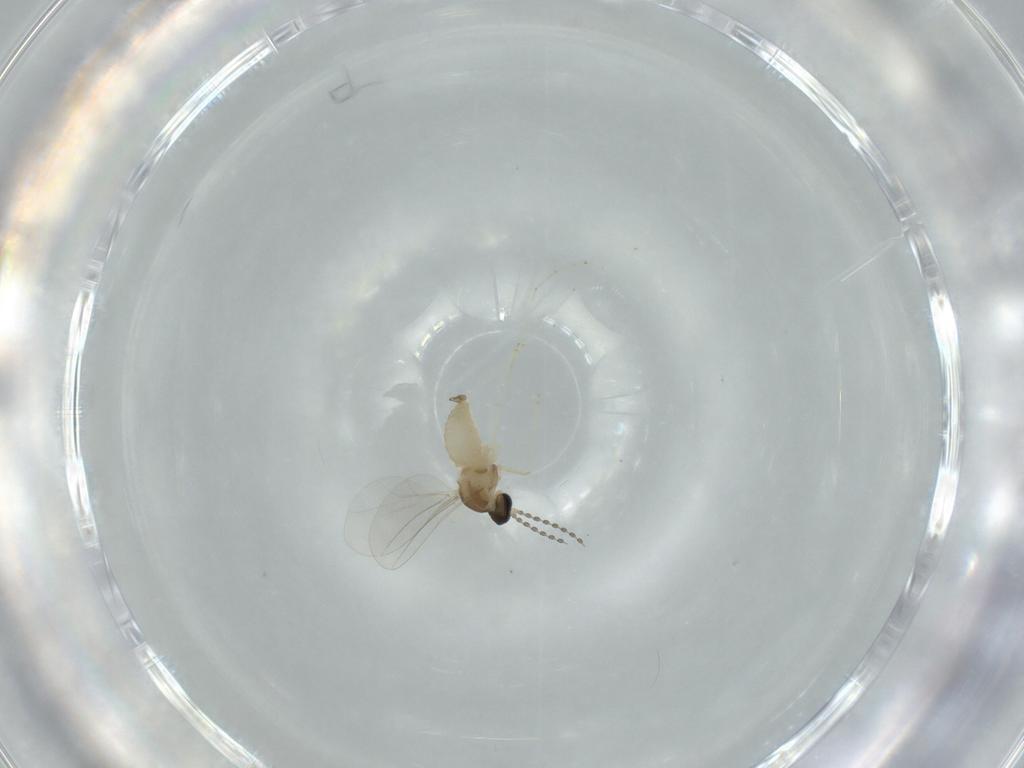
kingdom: Animalia
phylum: Arthropoda
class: Insecta
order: Diptera
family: Cecidomyiidae
